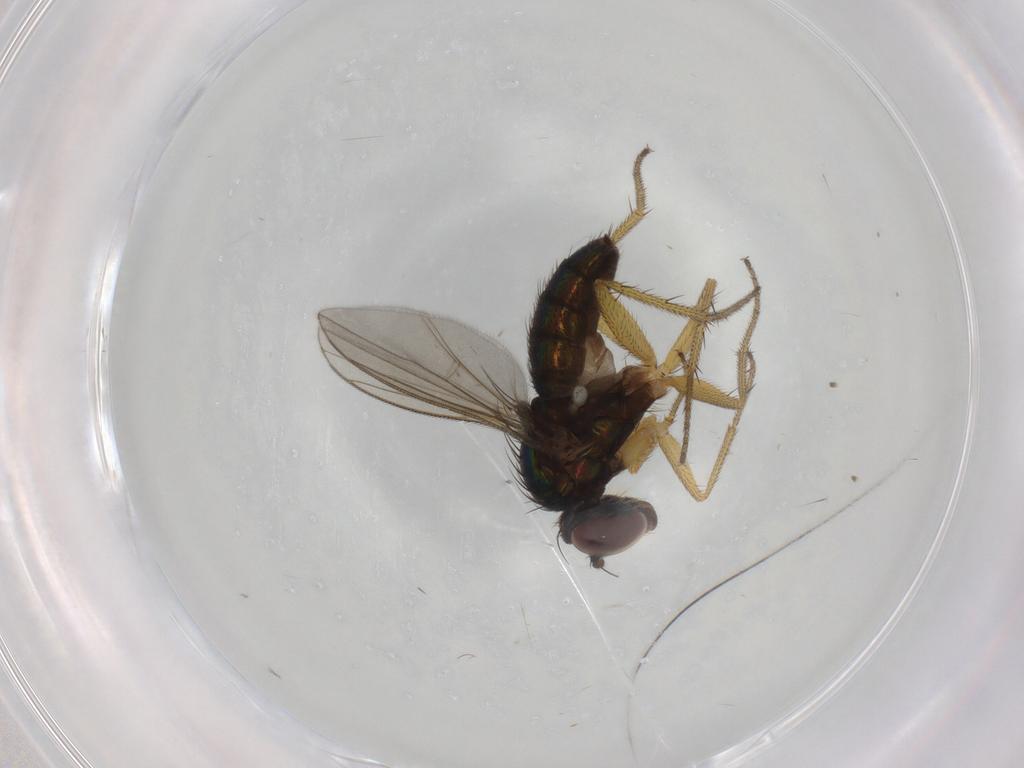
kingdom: Animalia
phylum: Arthropoda
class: Insecta
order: Diptera
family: Dolichopodidae
